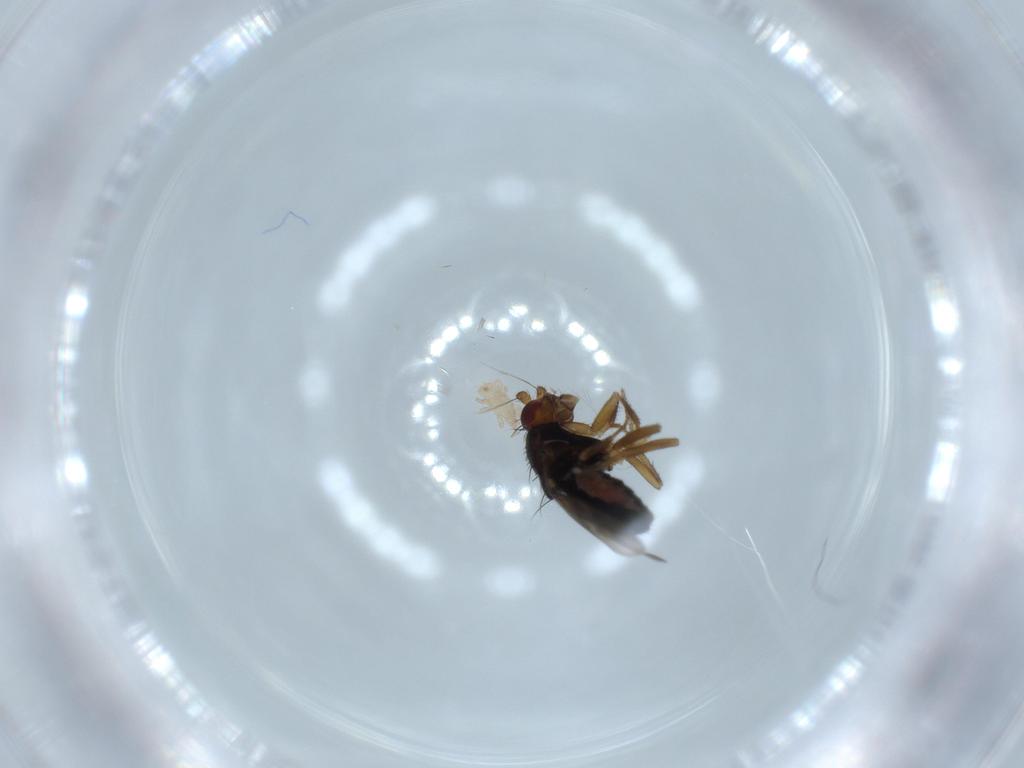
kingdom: Animalia
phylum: Arthropoda
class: Insecta
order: Diptera
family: Sphaeroceridae
